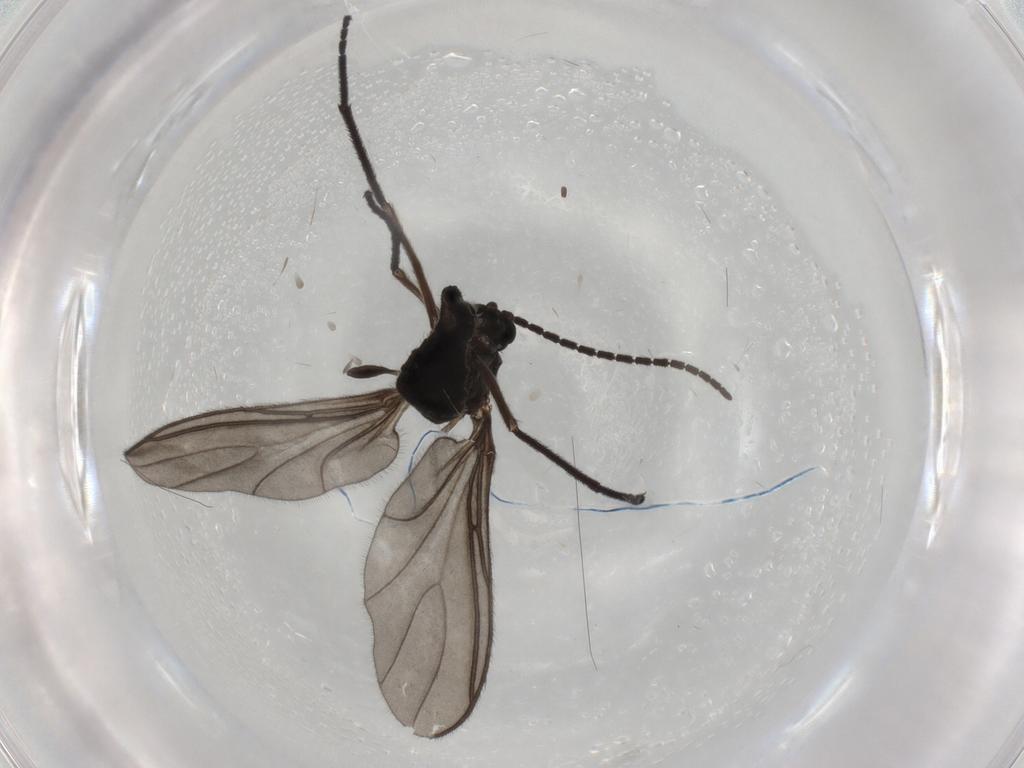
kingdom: Animalia
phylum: Arthropoda
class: Insecta
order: Diptera
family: Sciaridae
